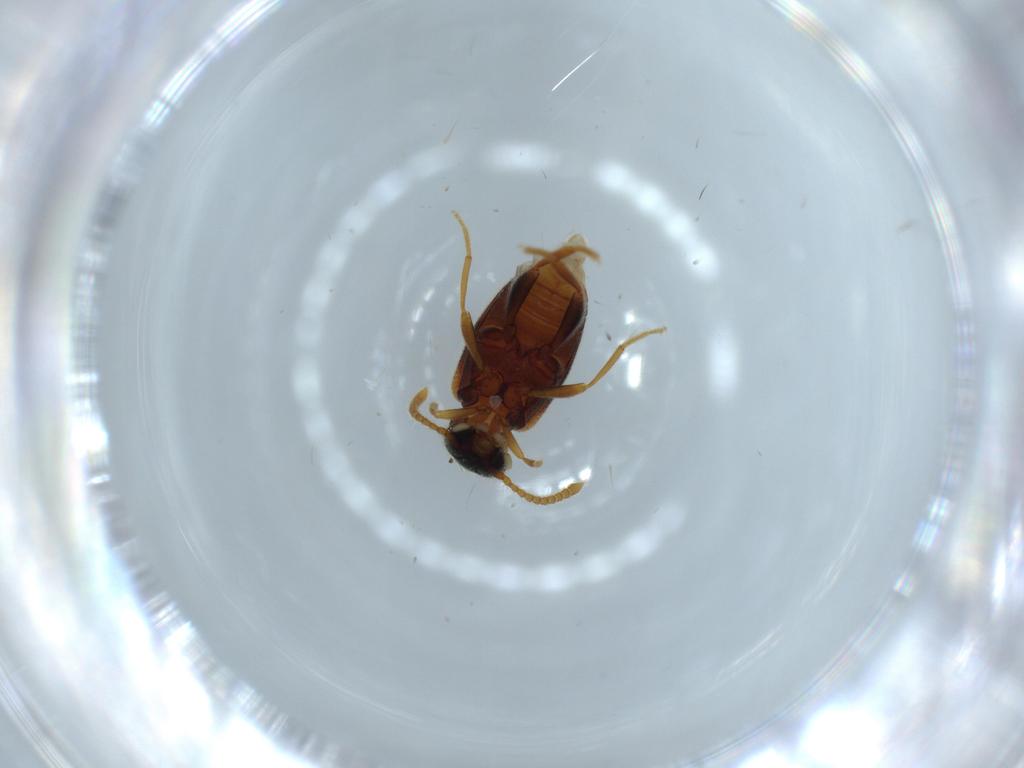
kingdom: Animalia
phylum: Arthropoda
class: Insecta
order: Coleoptera
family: Aderidae
